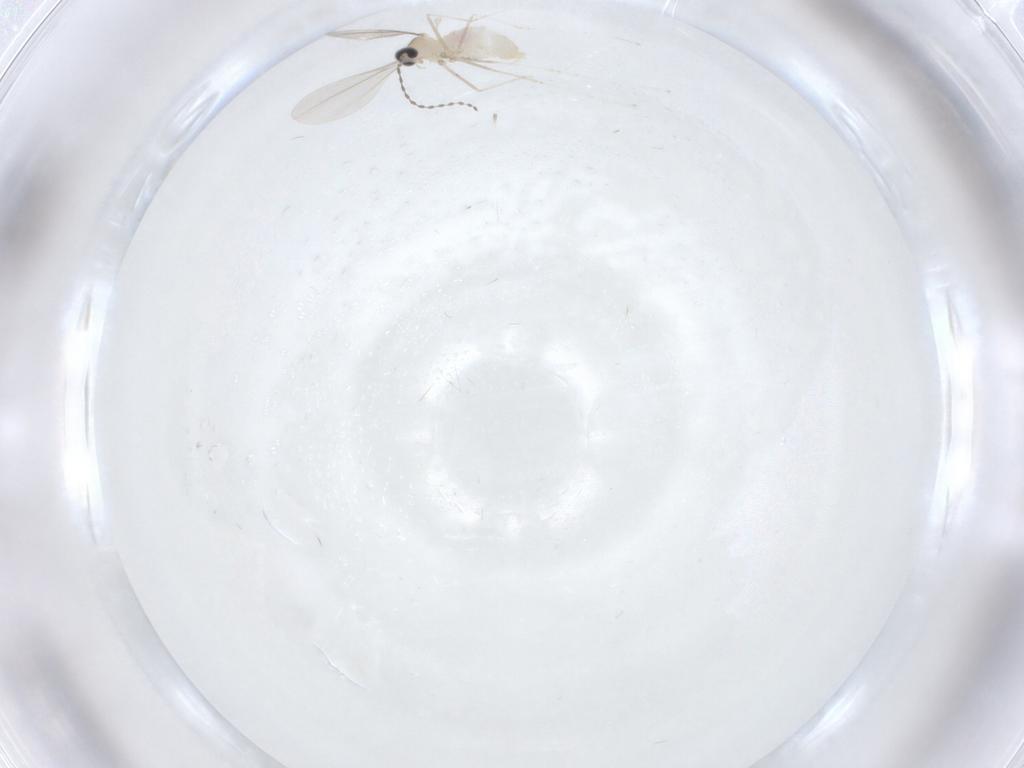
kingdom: Animalia
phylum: Arthropoda
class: Insecta
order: Diptera
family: Cecidomyiidae
